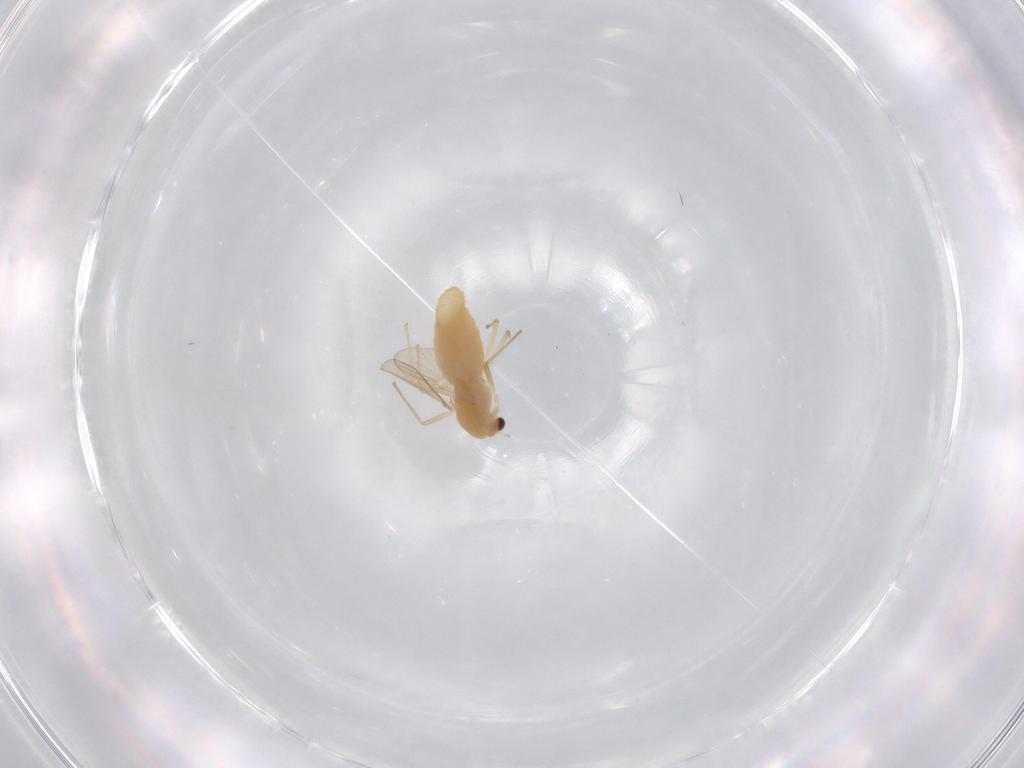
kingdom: Animalia
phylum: Arthropoda
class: Insecta
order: Diptera
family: Chironomidae
